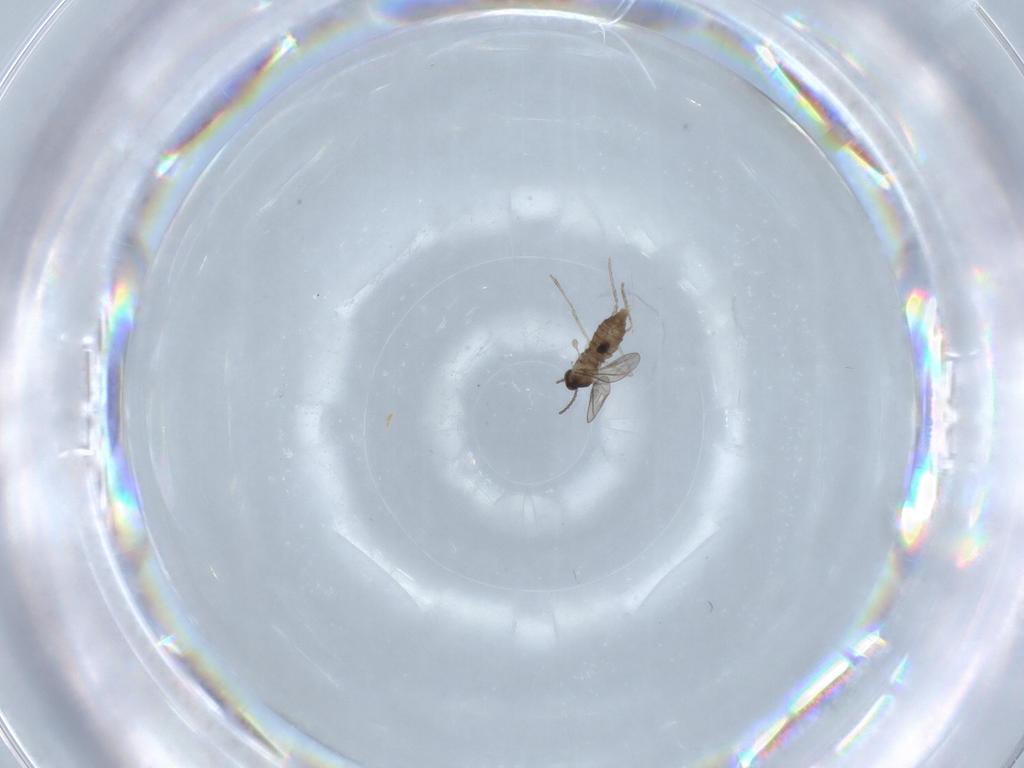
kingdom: Animalia
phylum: Arthropoda
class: Insecta
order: Diptera
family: Cecidomyiidae
